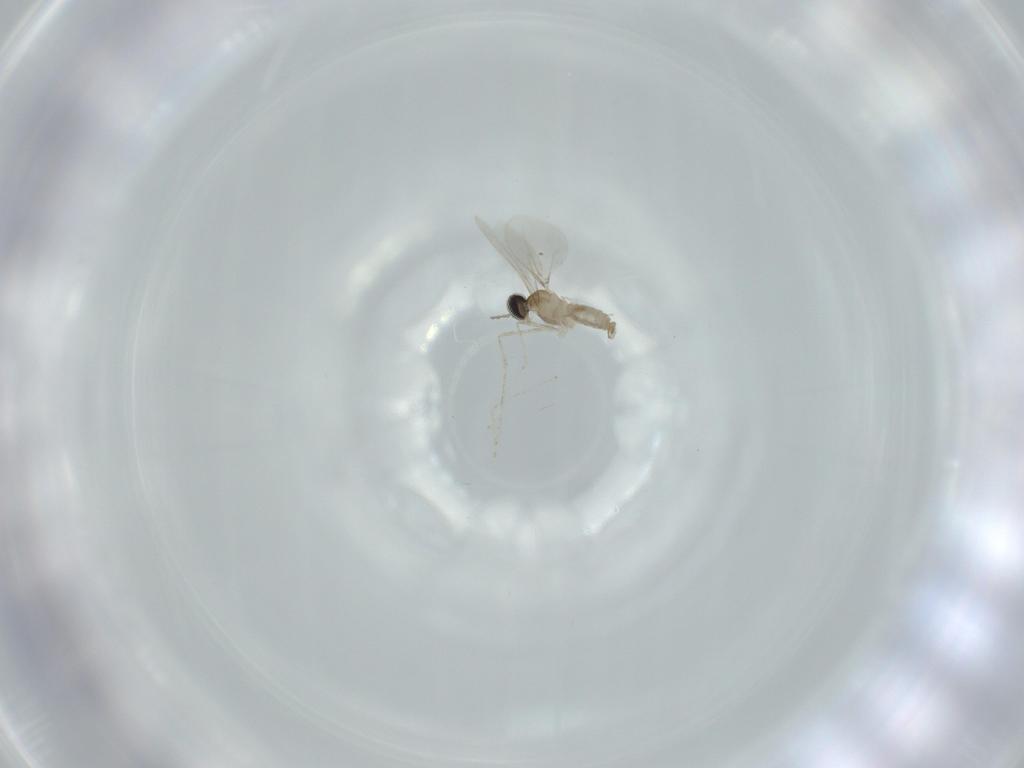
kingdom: Animalia
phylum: Arthropoda
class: Insecta
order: Diptera
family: Cecidomyiidae
